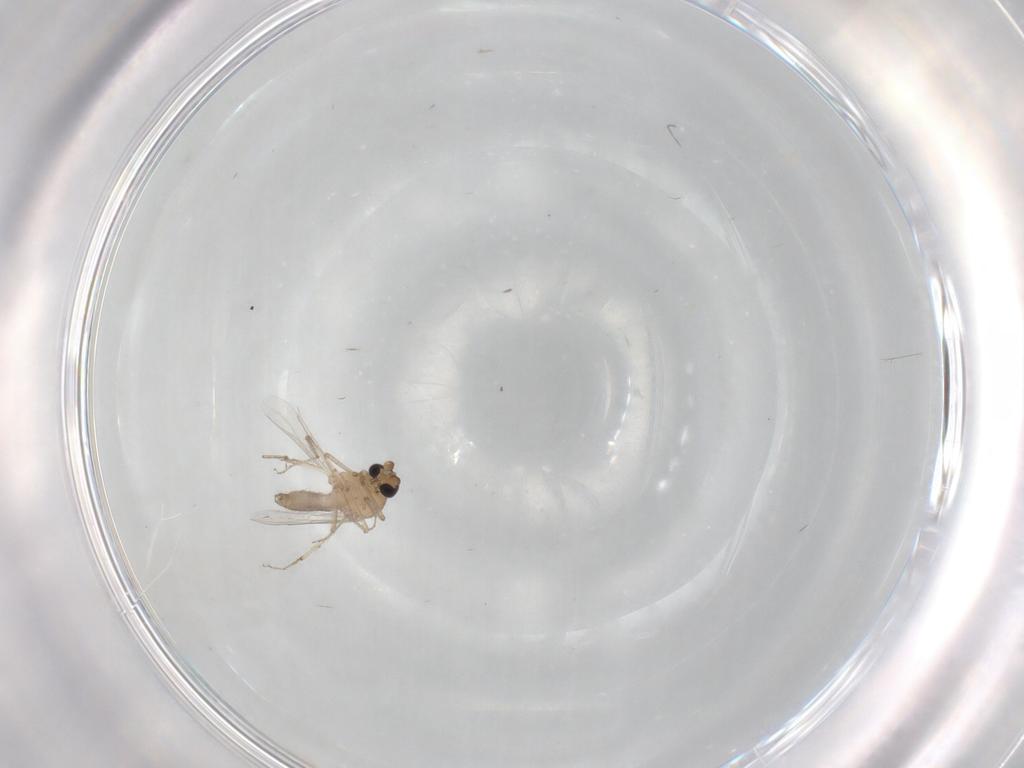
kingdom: Animalia
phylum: Arthropoda
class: Insecta
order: Diptera
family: Ceratopogonidae
